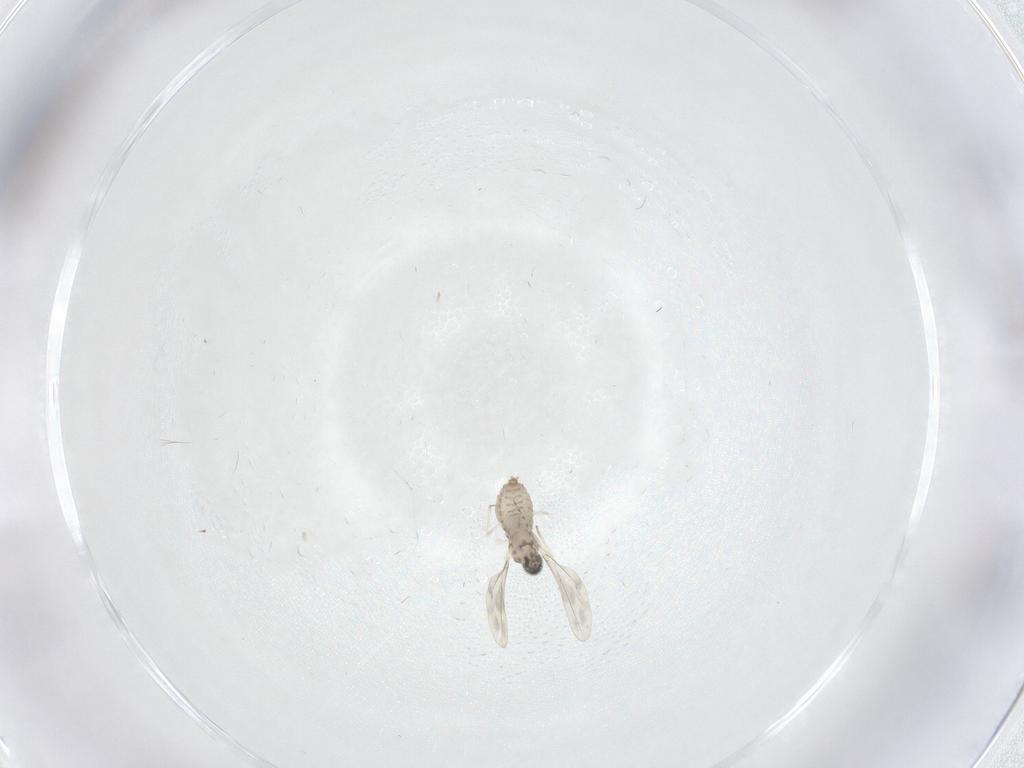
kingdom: Animalia
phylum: Arthropoda
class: Insecta
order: Diptera
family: Cecidomyiidae
